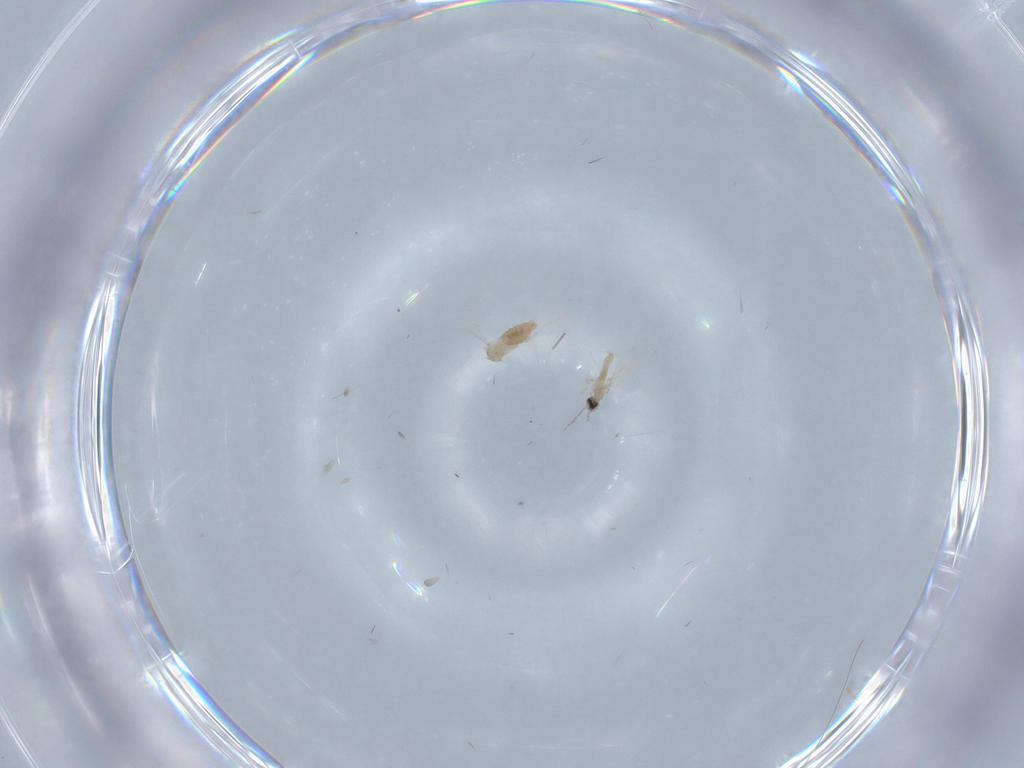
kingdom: Animalia
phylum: Arthropoda
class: Insecta
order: Diptera
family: Cecidomyiidae
